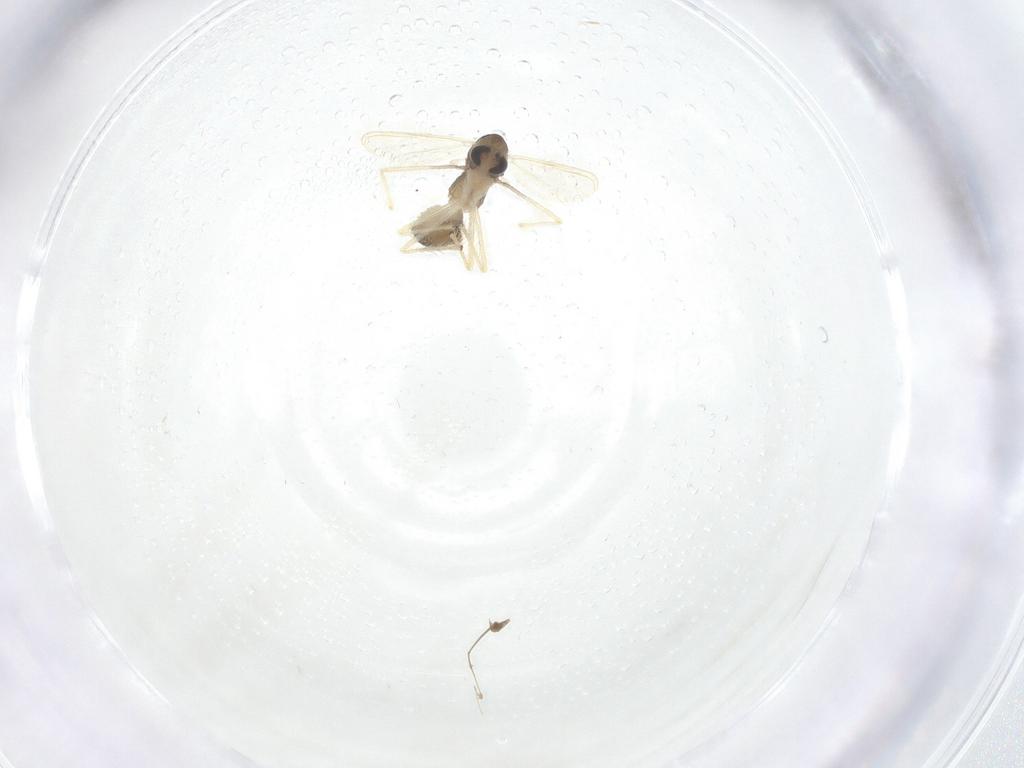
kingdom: Animalia
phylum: Arthropoda
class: Insecta
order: Diptera
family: Chironomidae
